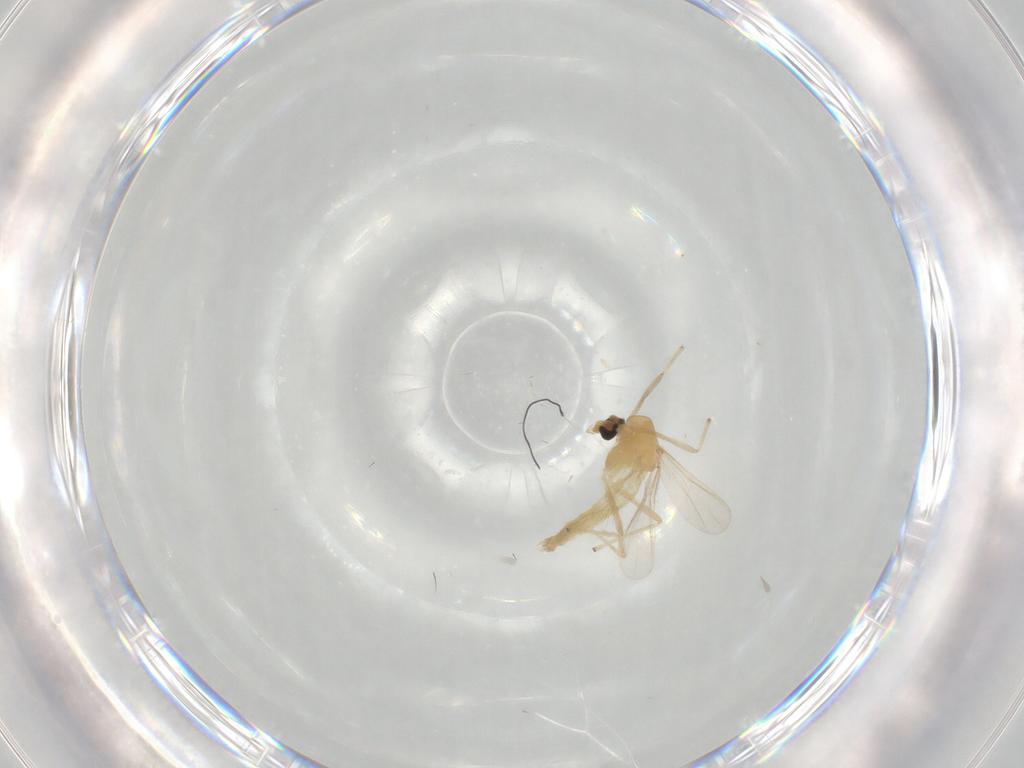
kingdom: Animalia
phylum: Arthropoda
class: Insecta
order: Diptera
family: Chironomidae
